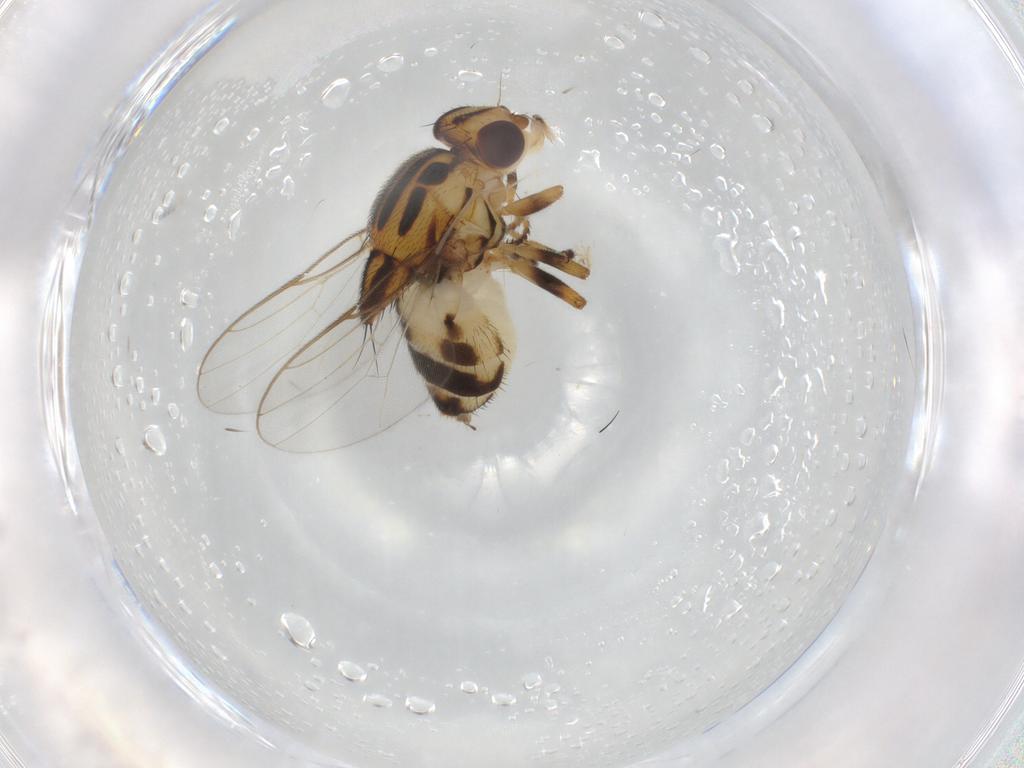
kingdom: Animalia
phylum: Arthropoda
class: Insecta
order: Diptera
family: Chloropidae
